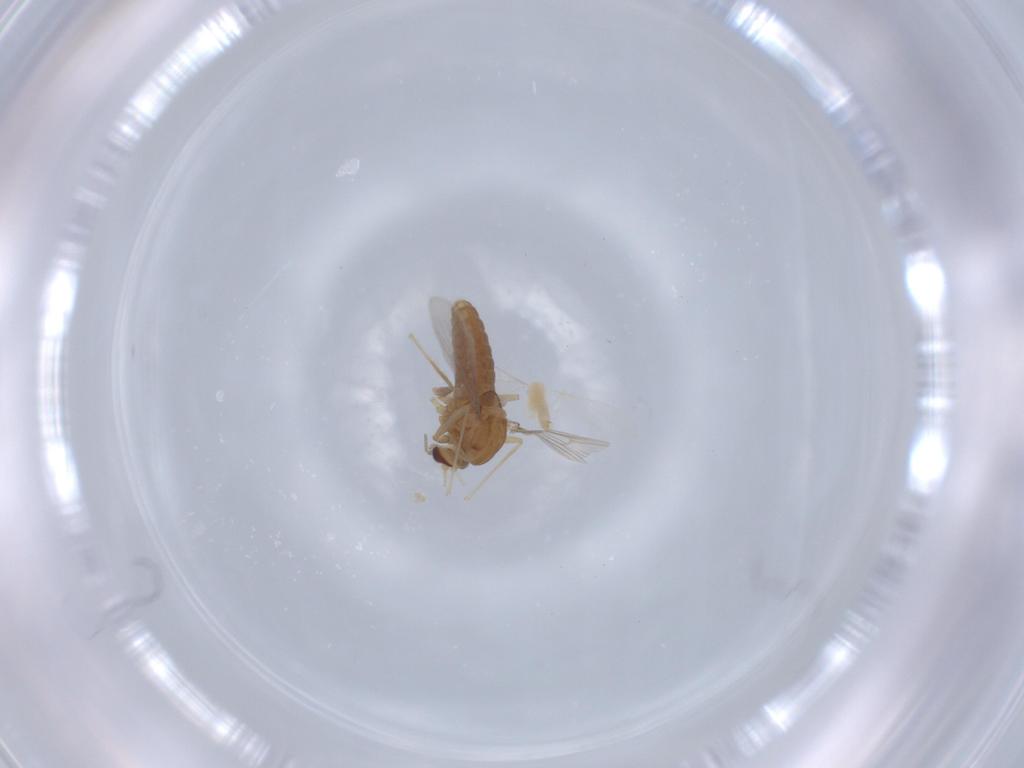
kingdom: Animalia
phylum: Arthropoda
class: Insecta
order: Diptera
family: Chironomidae
